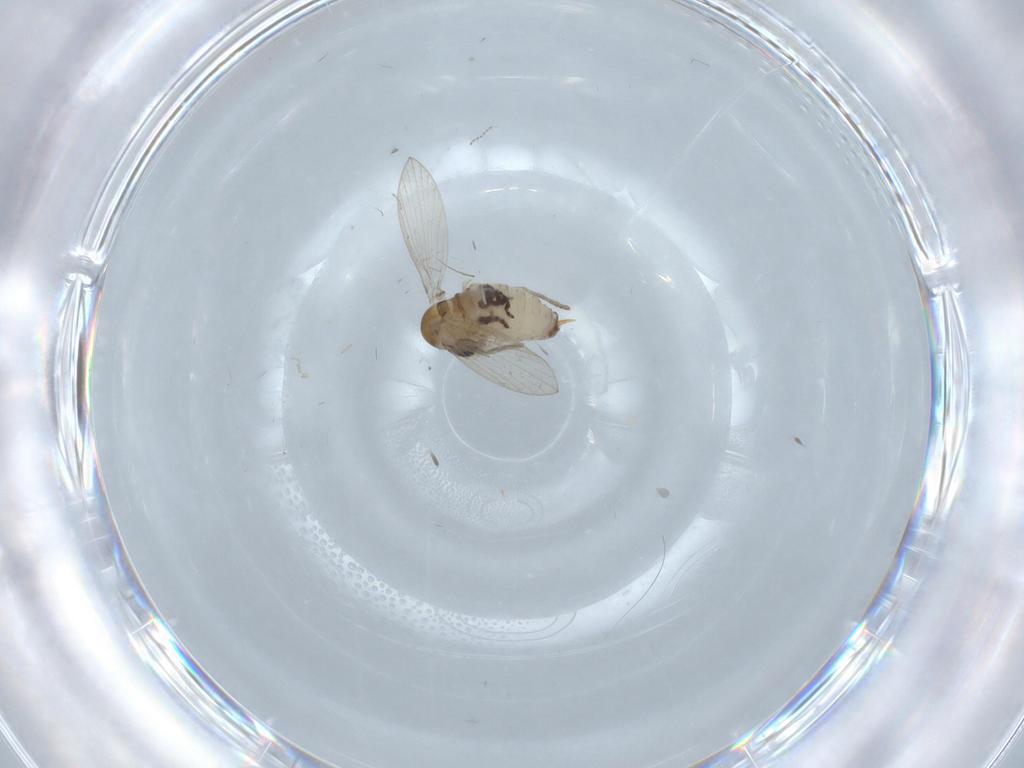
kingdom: Animalia
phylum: Arthropoda
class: Insecta
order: Diptera
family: Psychodidae
